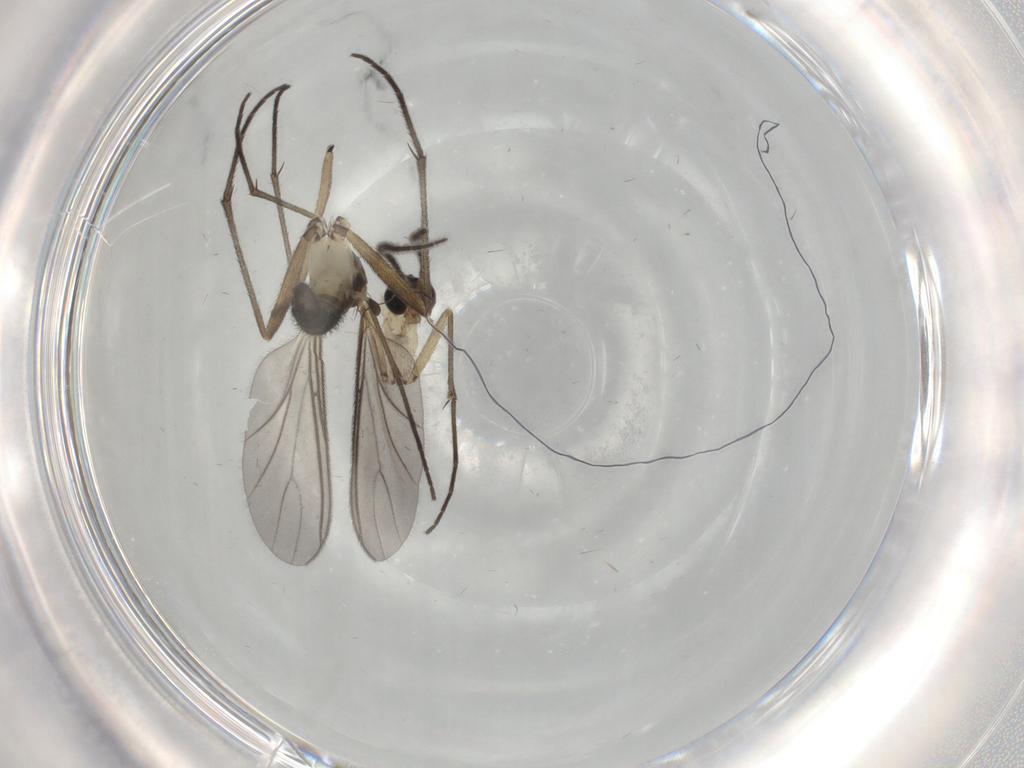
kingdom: Animalia
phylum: Arthropoda
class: Insecta
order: Diptera
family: Sciaridae
